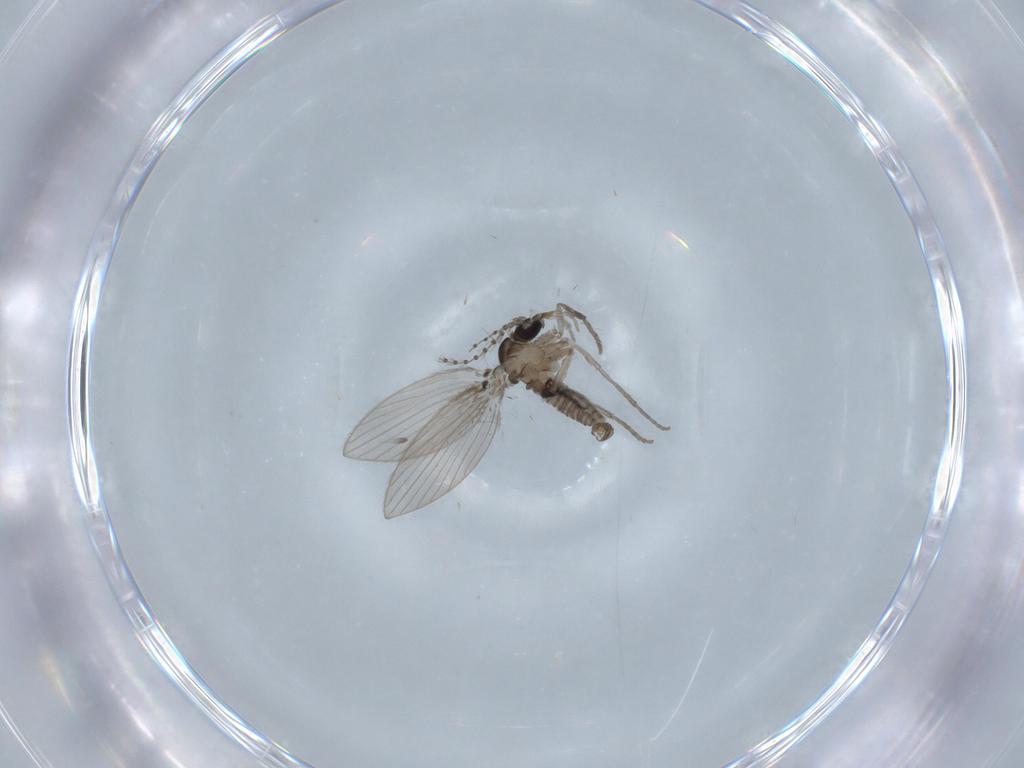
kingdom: Animalia
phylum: Arthropoda
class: Insecta
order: Diptera
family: Psychodidae
